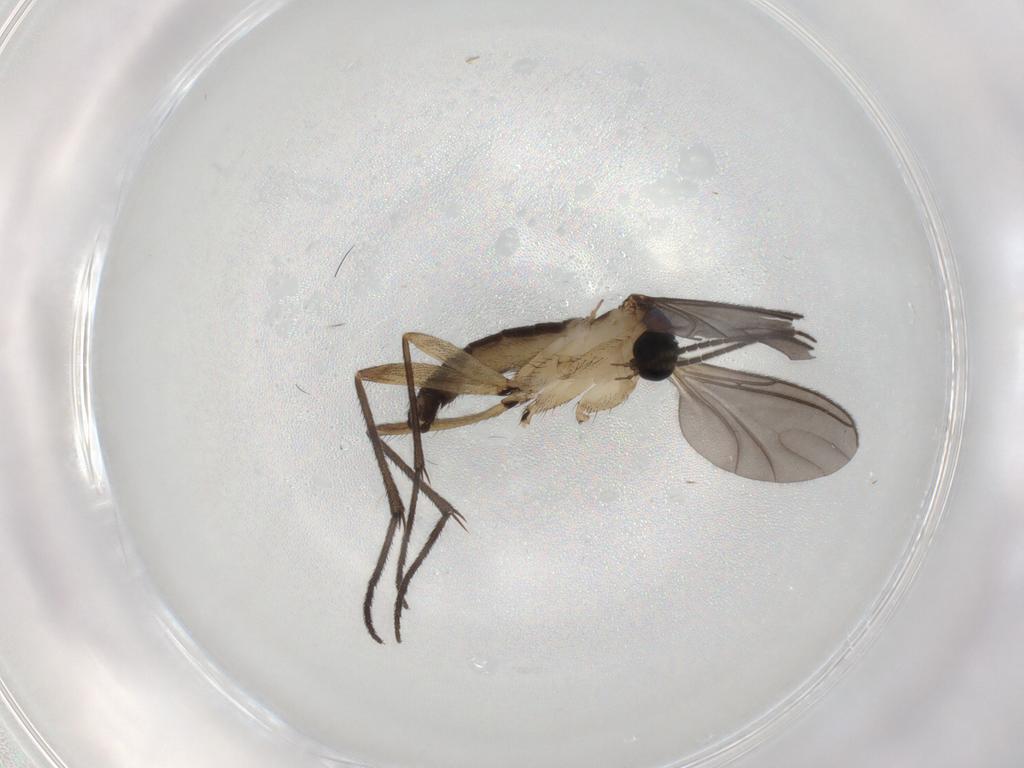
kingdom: Animalia
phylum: Arthropoda
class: Insecta
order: Diptera
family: Sciaridae
